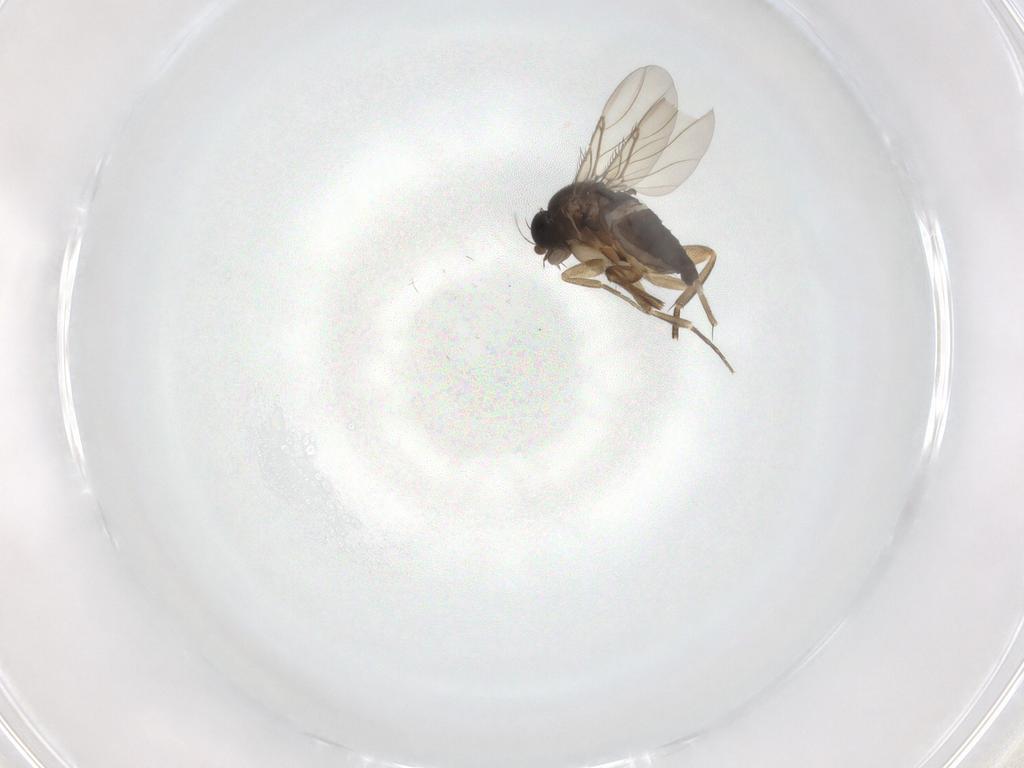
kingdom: Animalia
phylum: Arthropoda
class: Insecta
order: Diptera
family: Phoridae
